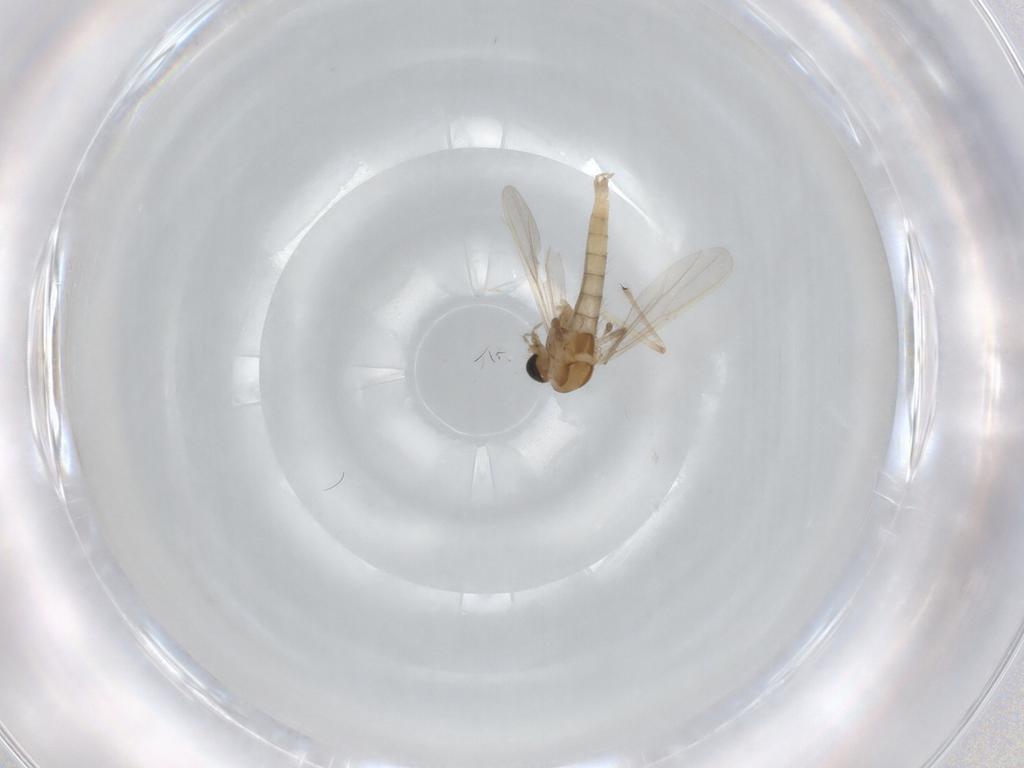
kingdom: Animalia
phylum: Arthropoda
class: Insecta
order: Diptera
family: Chironomidae
